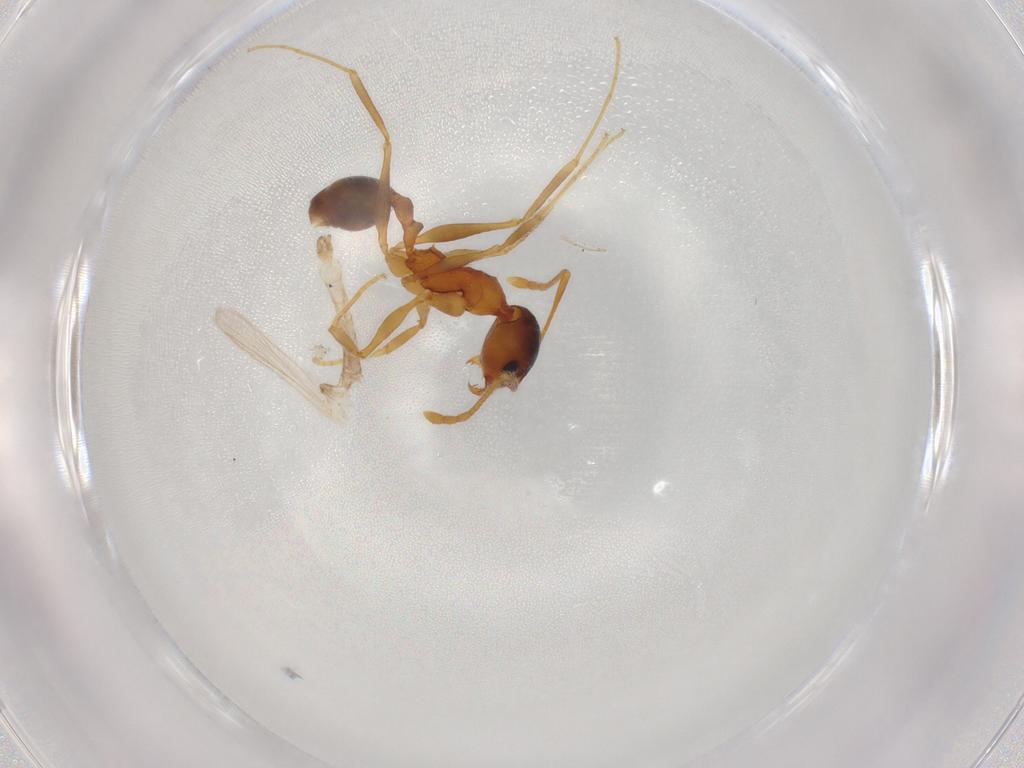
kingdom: Animalia
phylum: Arthropoda
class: Insecta
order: Hymenoptera
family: Formicidae
